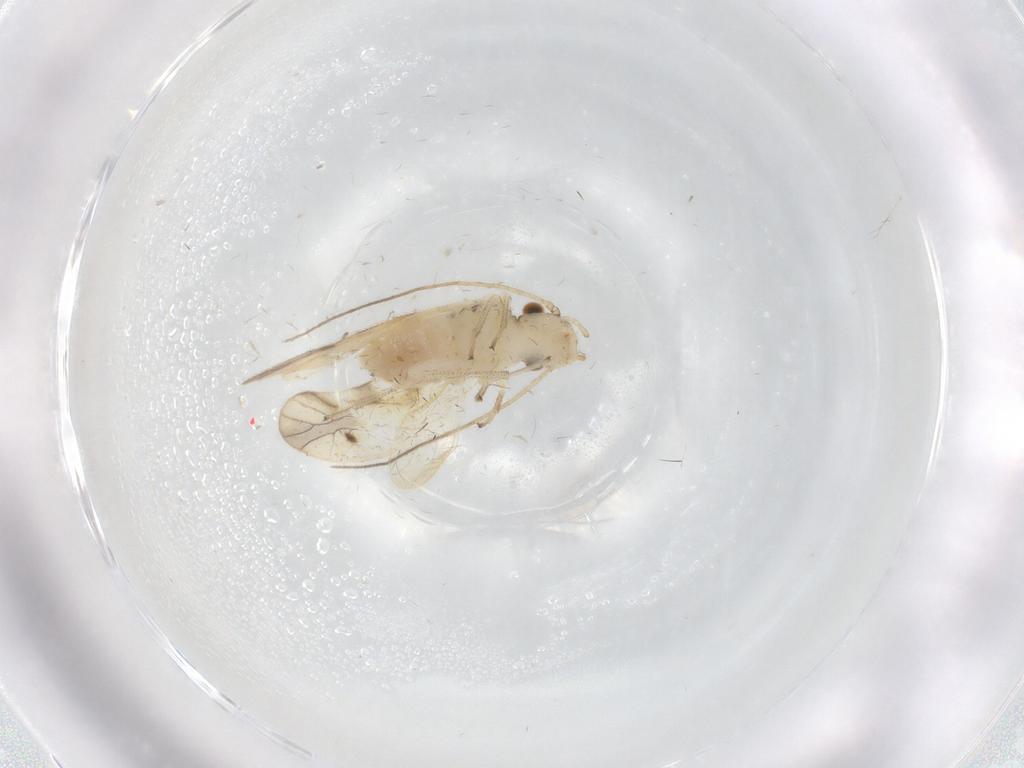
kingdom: Animalia
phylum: Arthropoda
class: Insecta
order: Psocodea
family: Caeciliusidae
